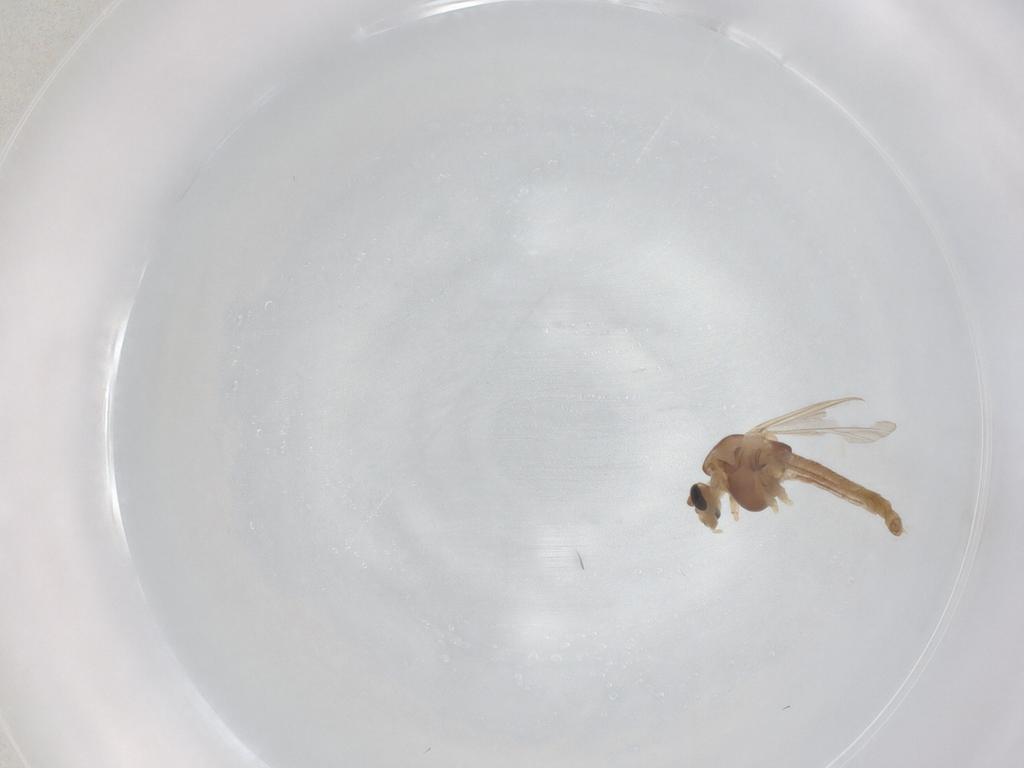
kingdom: Animalia
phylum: Arthropoda
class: Insecta
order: Diptera
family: Chironomidae
